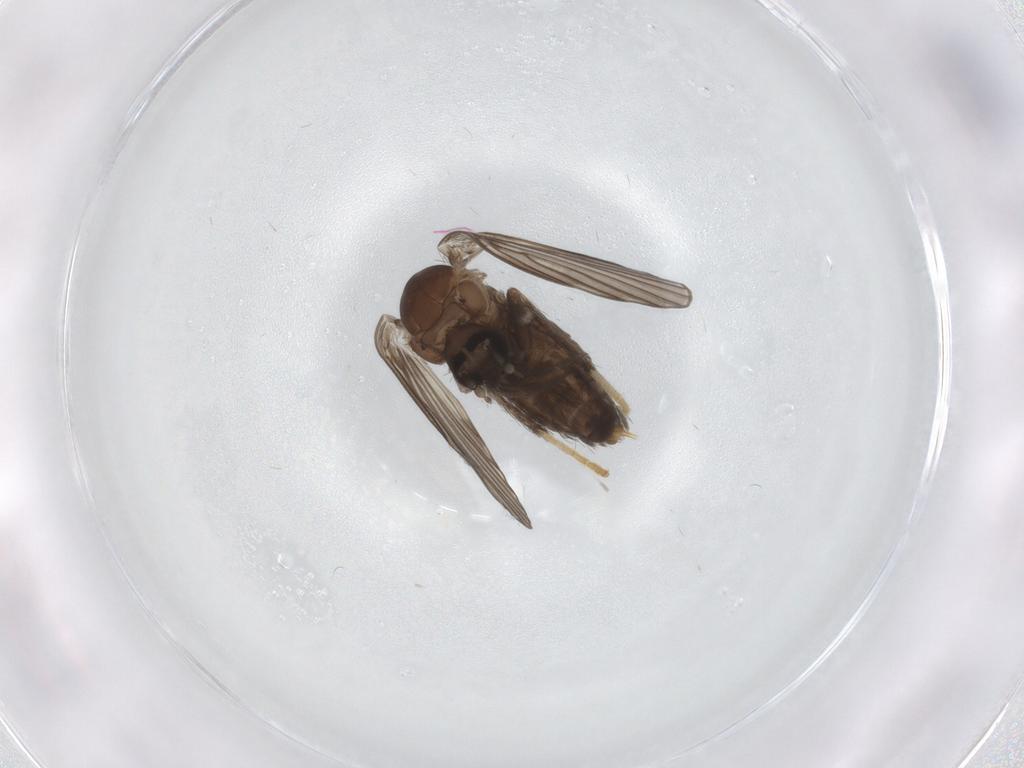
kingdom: Animalia
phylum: Arthropoda
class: Insecta
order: Diptera
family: Psychodidae
